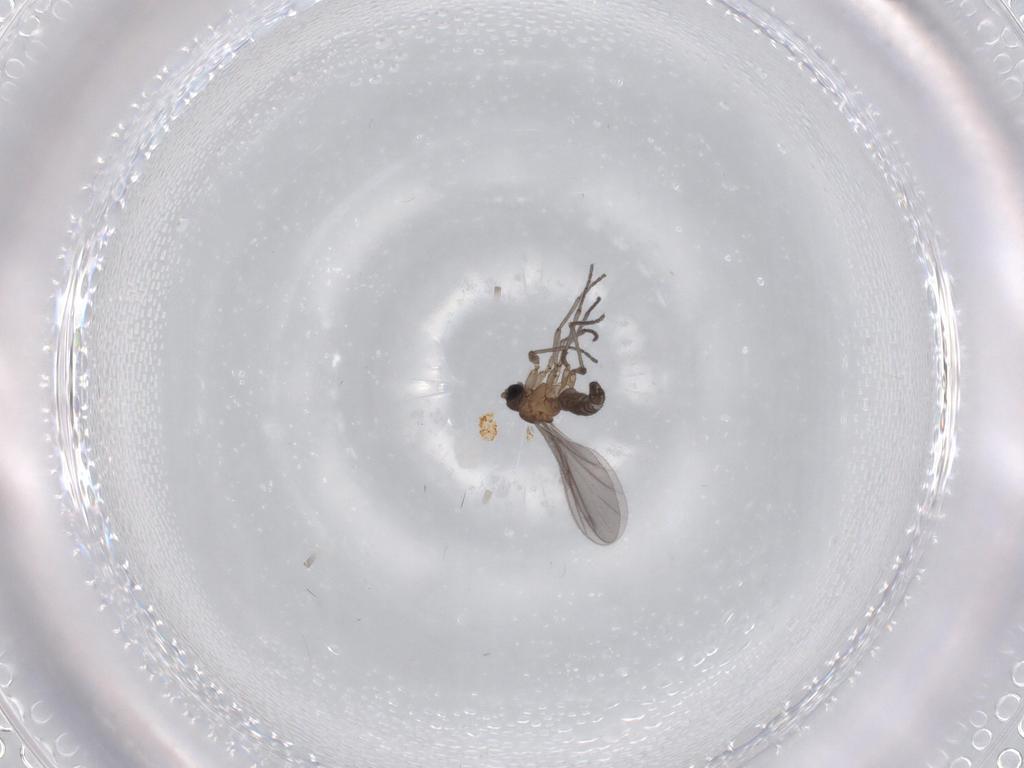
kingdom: Animalia
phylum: Arthropoda
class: Insecta
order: Diptera
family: Sciaridae
